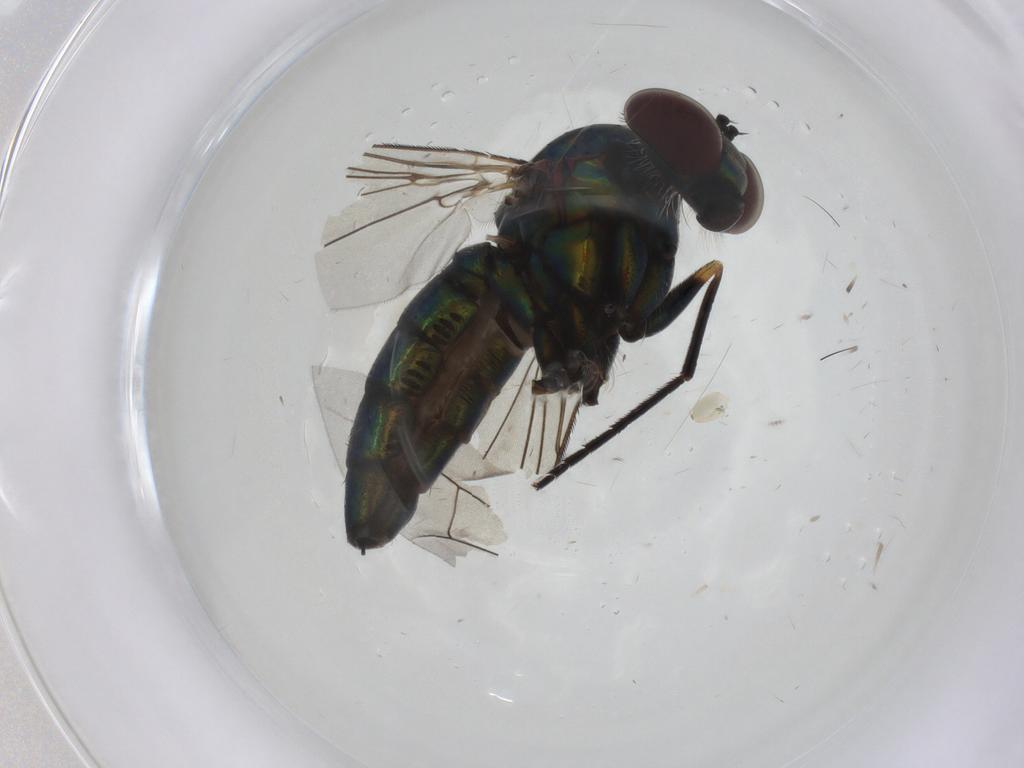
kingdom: Animalia
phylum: Arthropoda
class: Insecta
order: Diptera
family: Dolichopodidae
